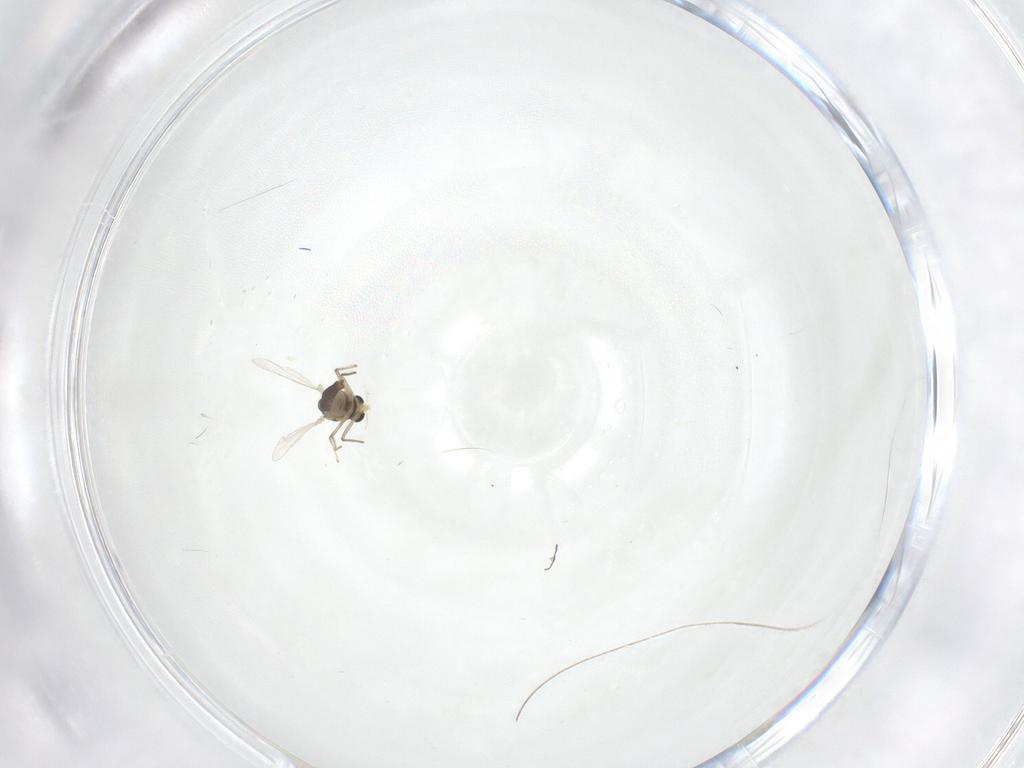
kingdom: Animalia
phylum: Arthropoda
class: Insecta
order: Diptera
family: Chironomidae
